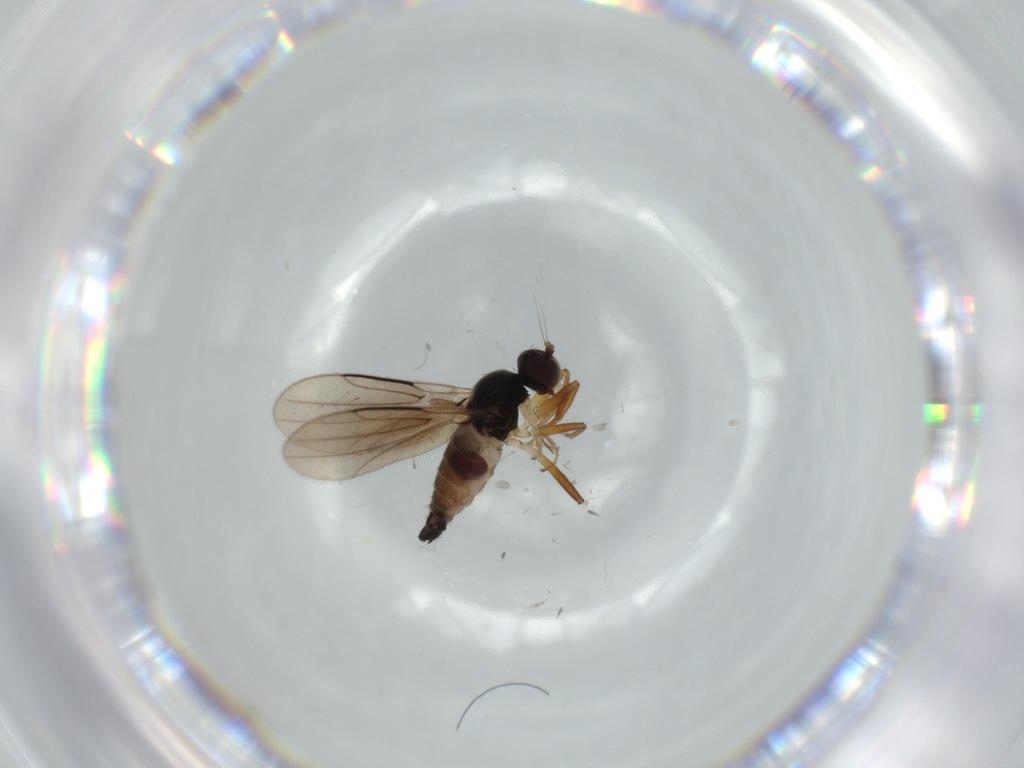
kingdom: Animalia
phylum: Arthropoda
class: Insecta
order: Diptera
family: Hybotidae
